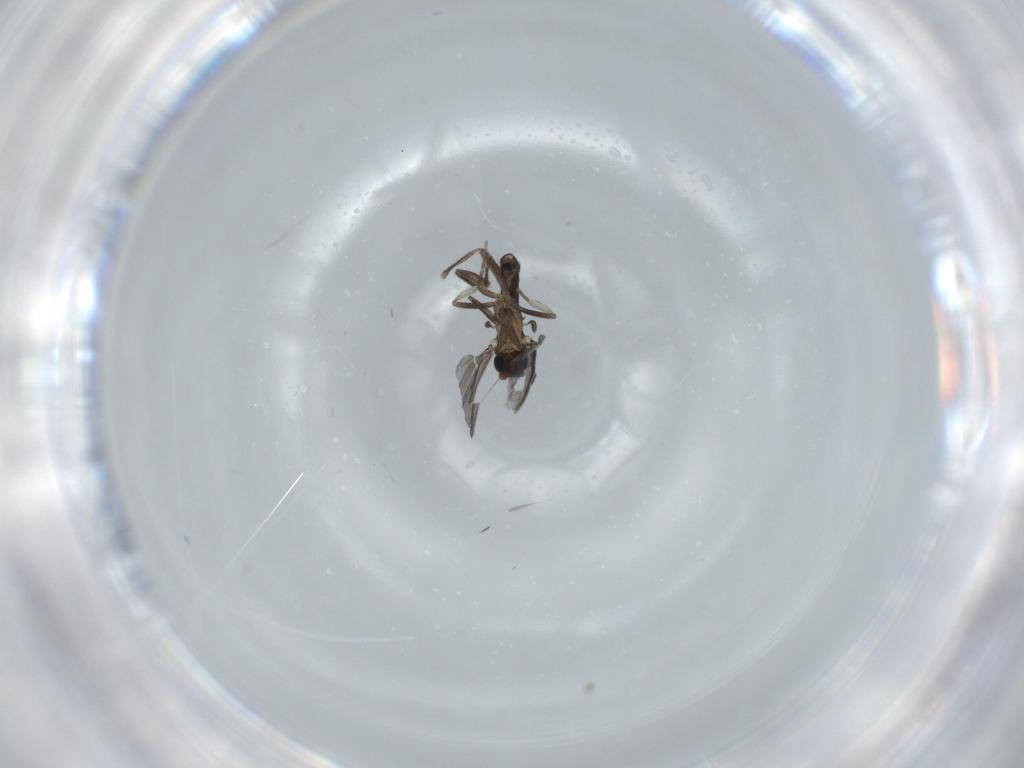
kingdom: Animalia
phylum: Arthropoda
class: Insecta
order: Diptera
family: Phoridae
